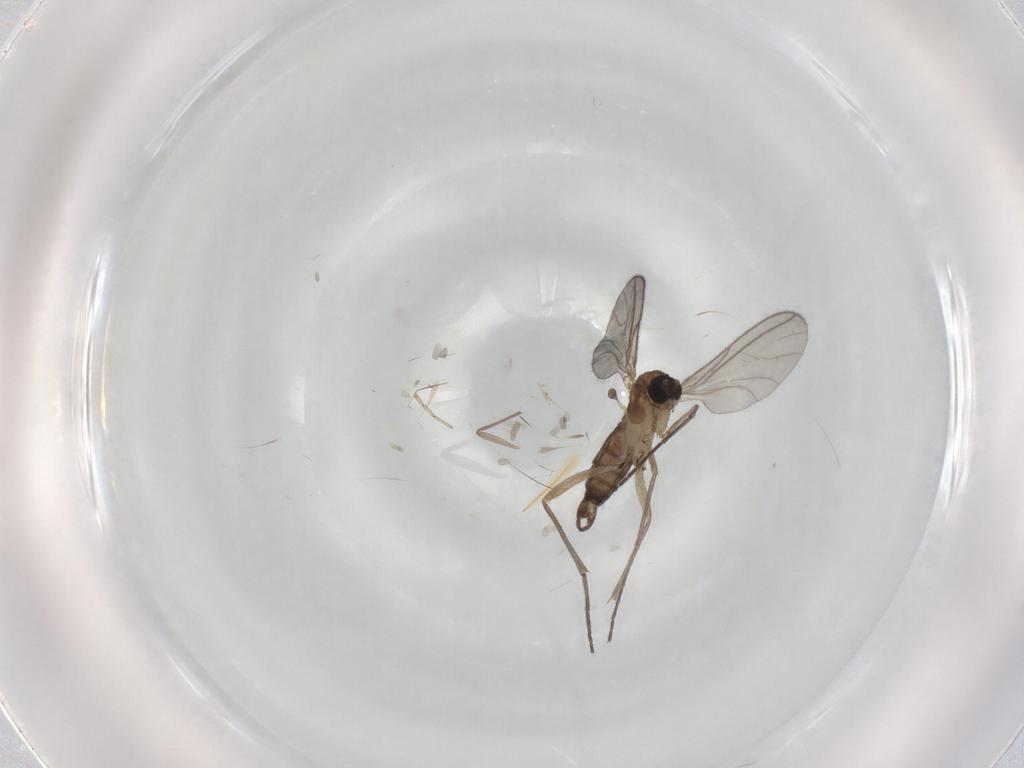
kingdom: Animalia
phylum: Arthropoda
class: Insecta
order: Diptera
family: Sciaridae
